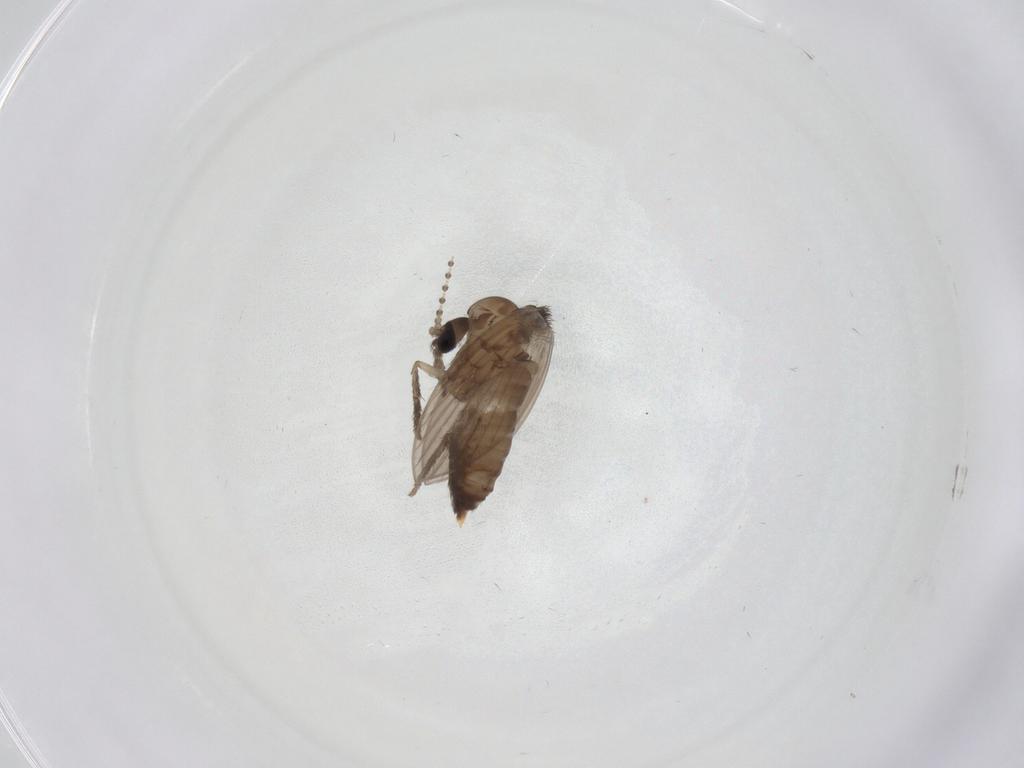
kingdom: Animalia
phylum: Arthropoda
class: Insecta
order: Diptera
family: Psychodidae
